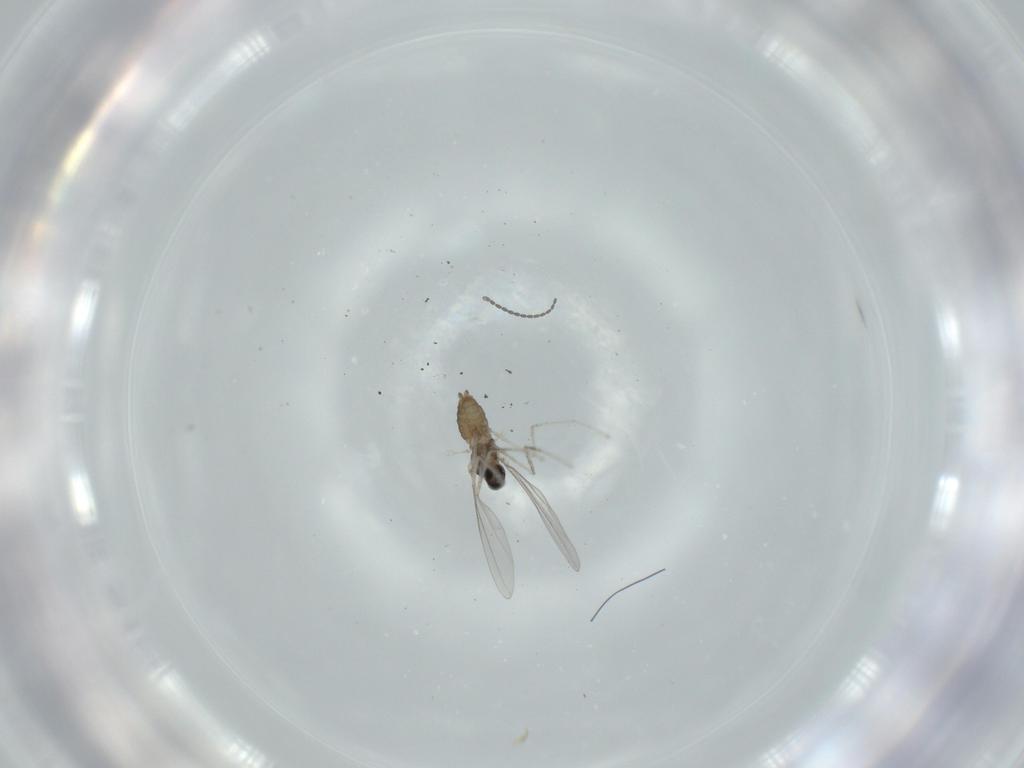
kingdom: Animalia
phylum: Arthropoda
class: Insecta
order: Diptera
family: Cecidomyiidae
